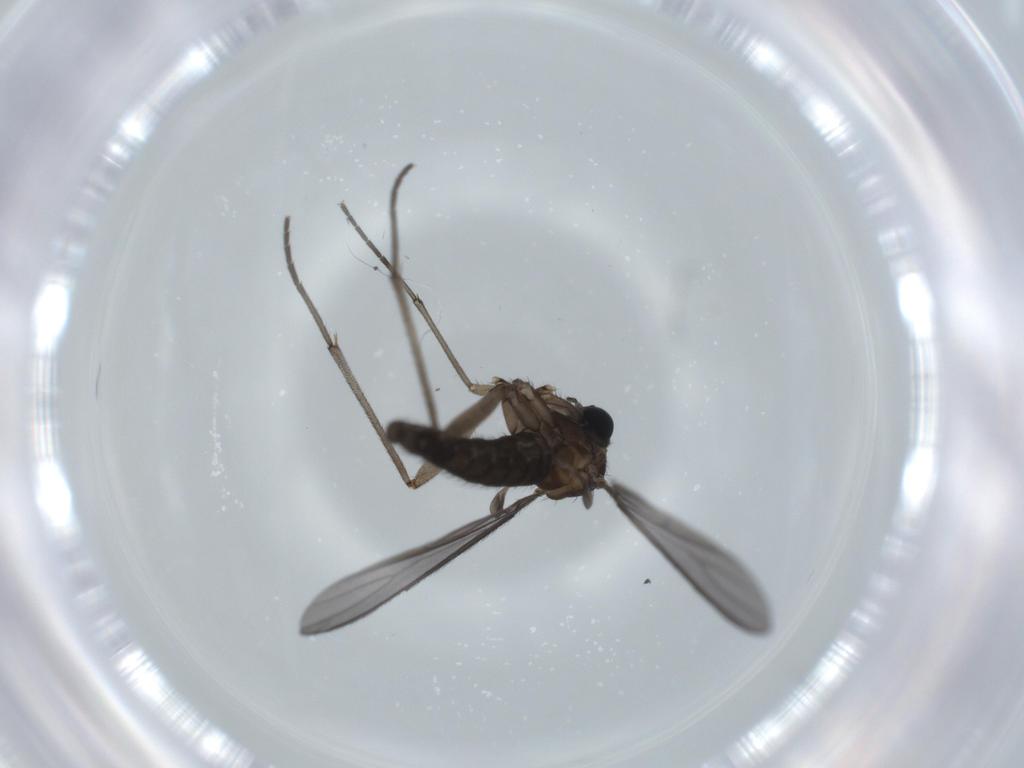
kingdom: Animalia
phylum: Arthropoda
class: Insecta
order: Diptera
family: Sciaridae
